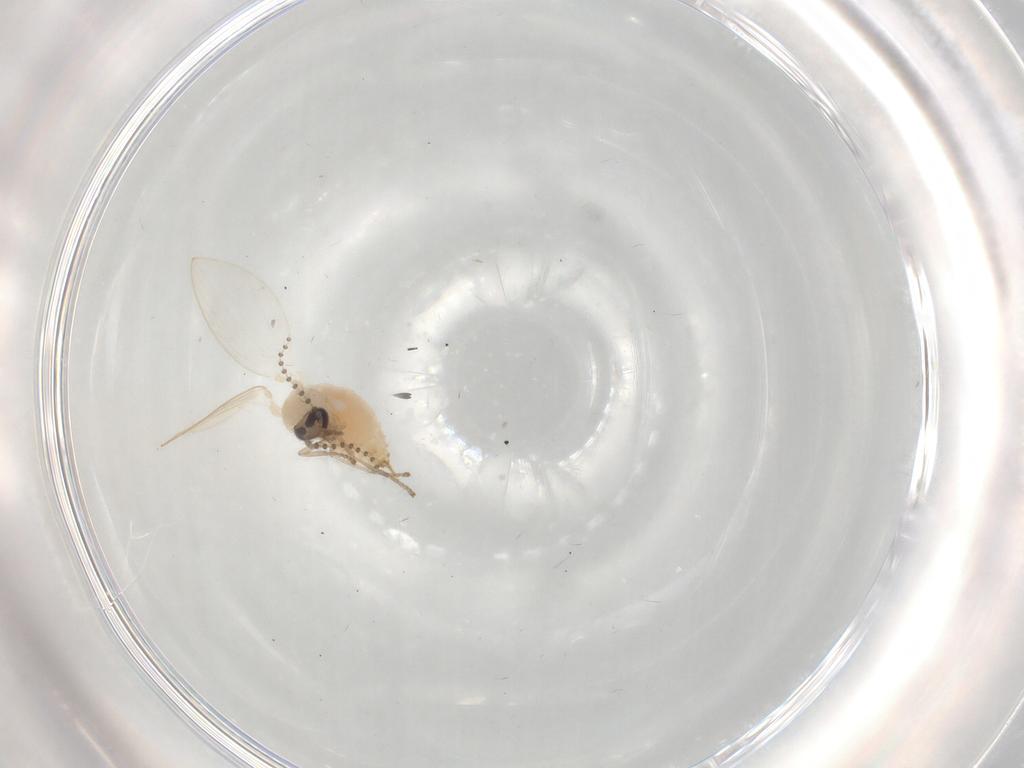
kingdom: Animalia
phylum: Arthropoda
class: Insecta
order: Diptera
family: Psychodidae
